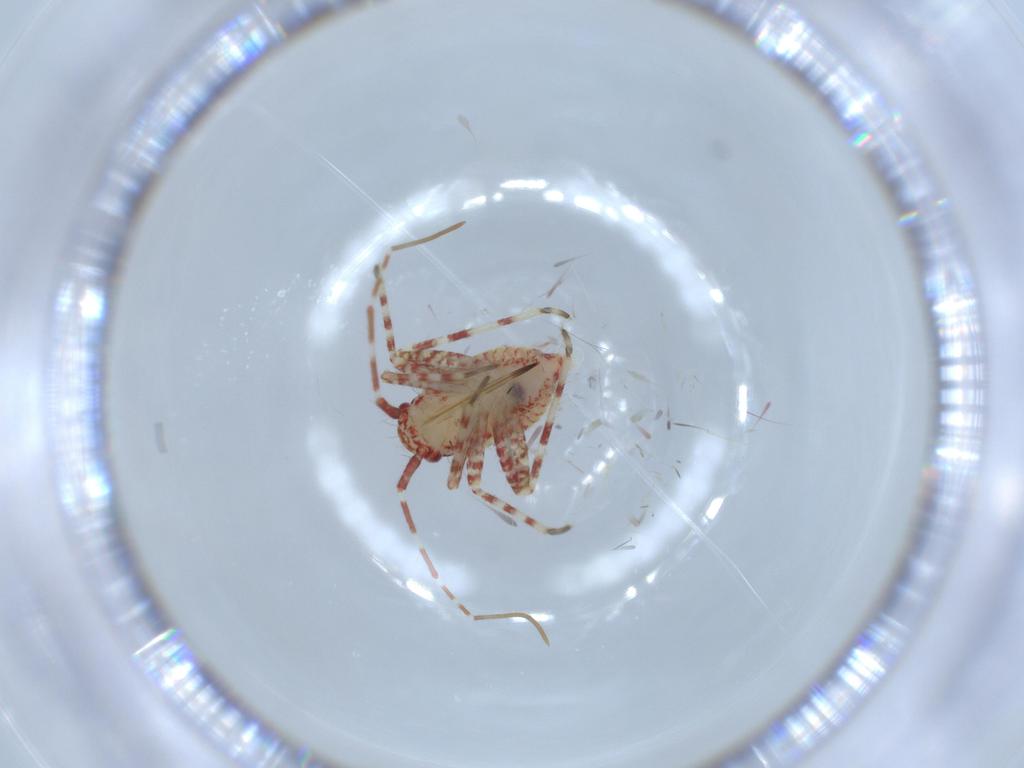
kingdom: Animalia
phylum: Arthropoda
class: Insecta
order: Hemiptera
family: Miridae
